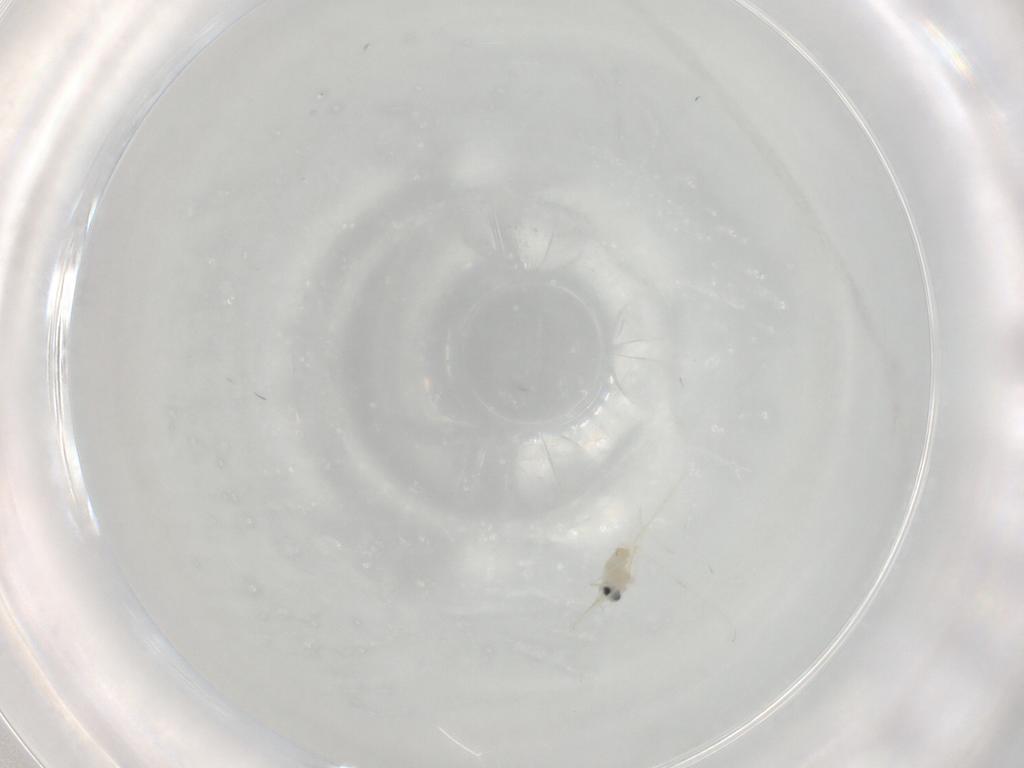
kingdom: Animalia
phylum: Arthropoda
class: Insecta
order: Diptera
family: Cecidomyiidae
